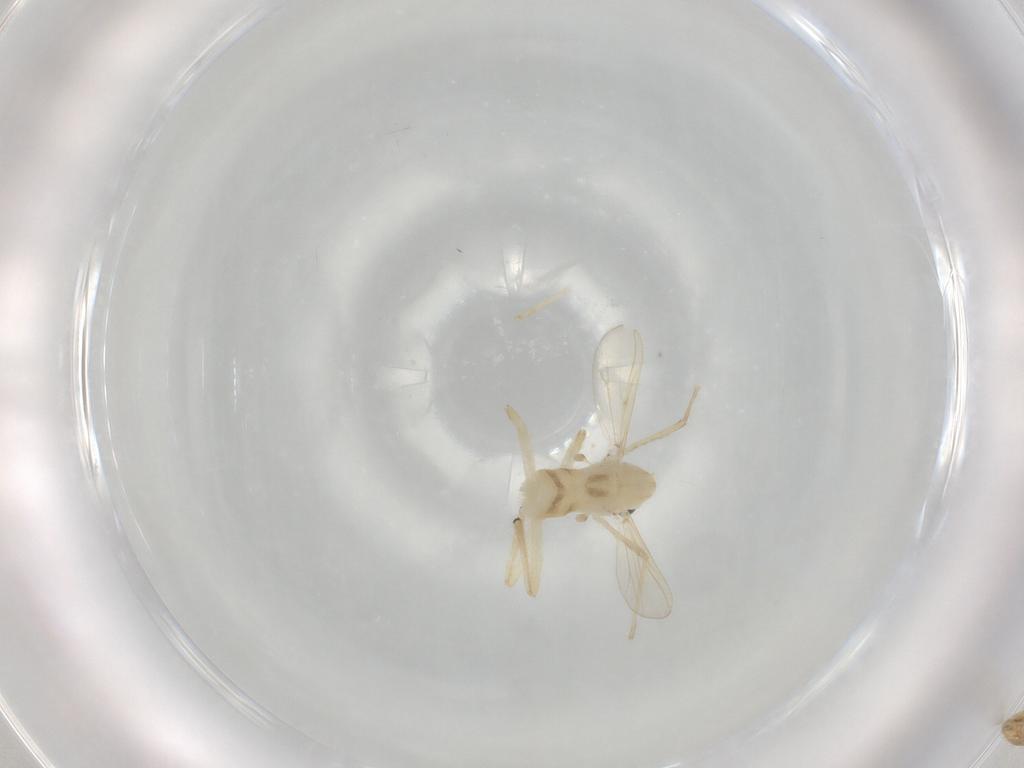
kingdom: Animalia
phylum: Arthropoda
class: Insecta
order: Diptera
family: Chironomidae
